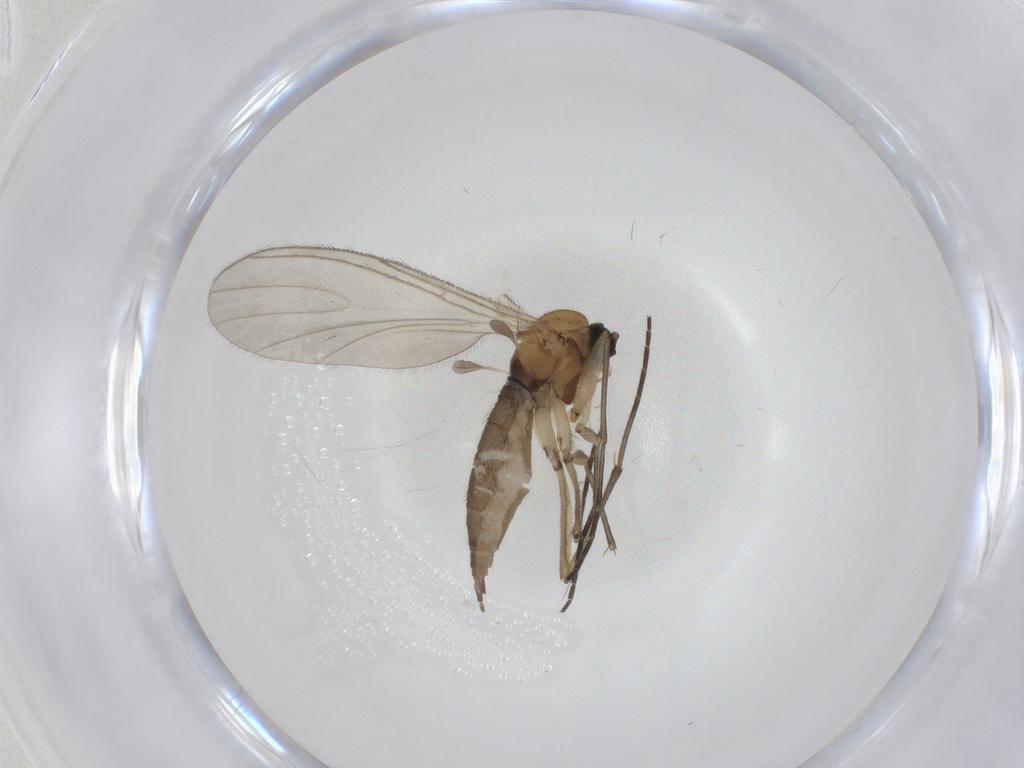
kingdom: Animalia
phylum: Arthropoda
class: Insecta
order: Diptera
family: Sciaridae
